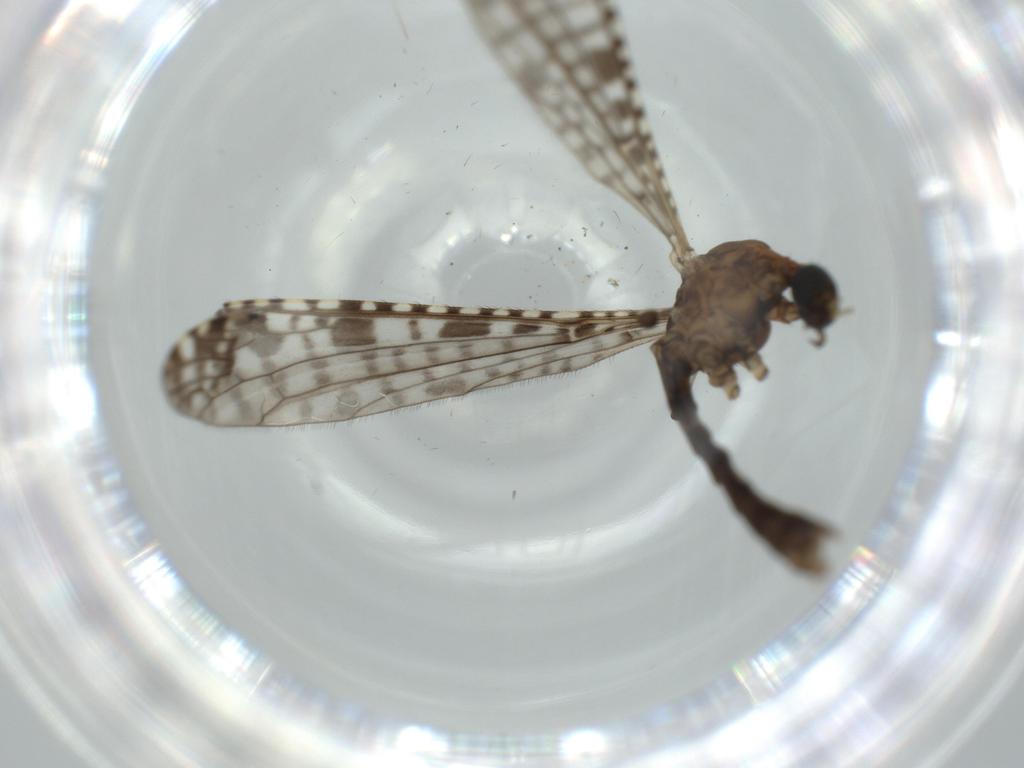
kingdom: Animalia
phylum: Arthropoda
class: Insecta
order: Diptera
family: Sciaridae
